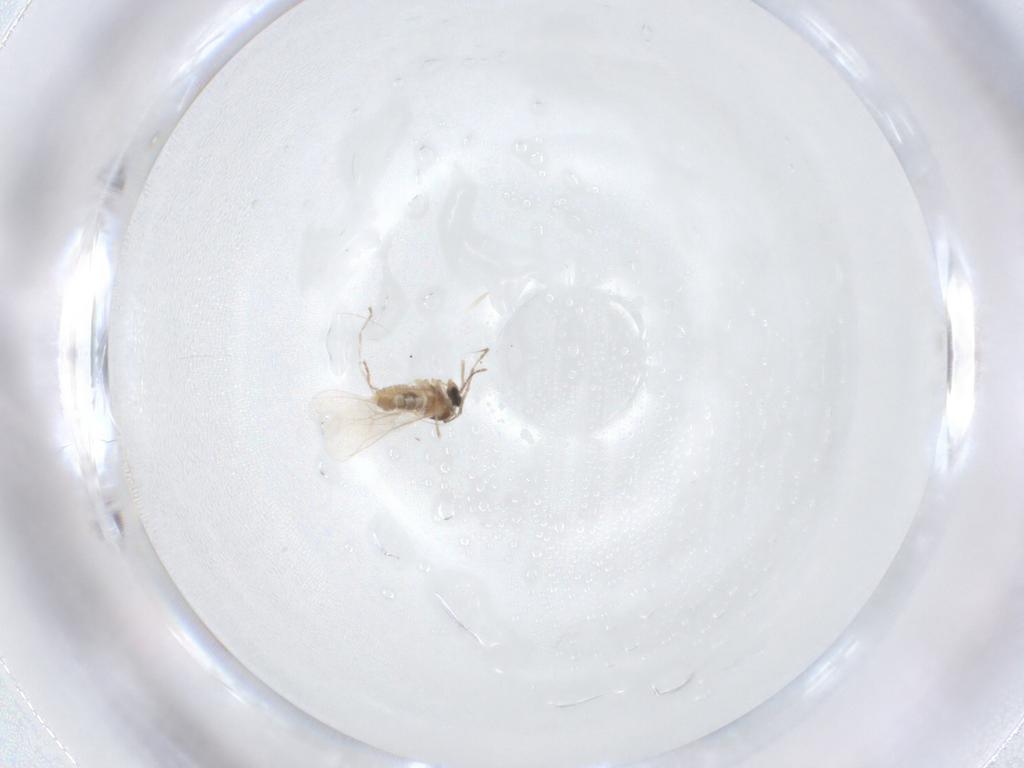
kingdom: Animalia
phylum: Arthropoda
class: Insecta
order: Diptera
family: Cecidomyiidae
